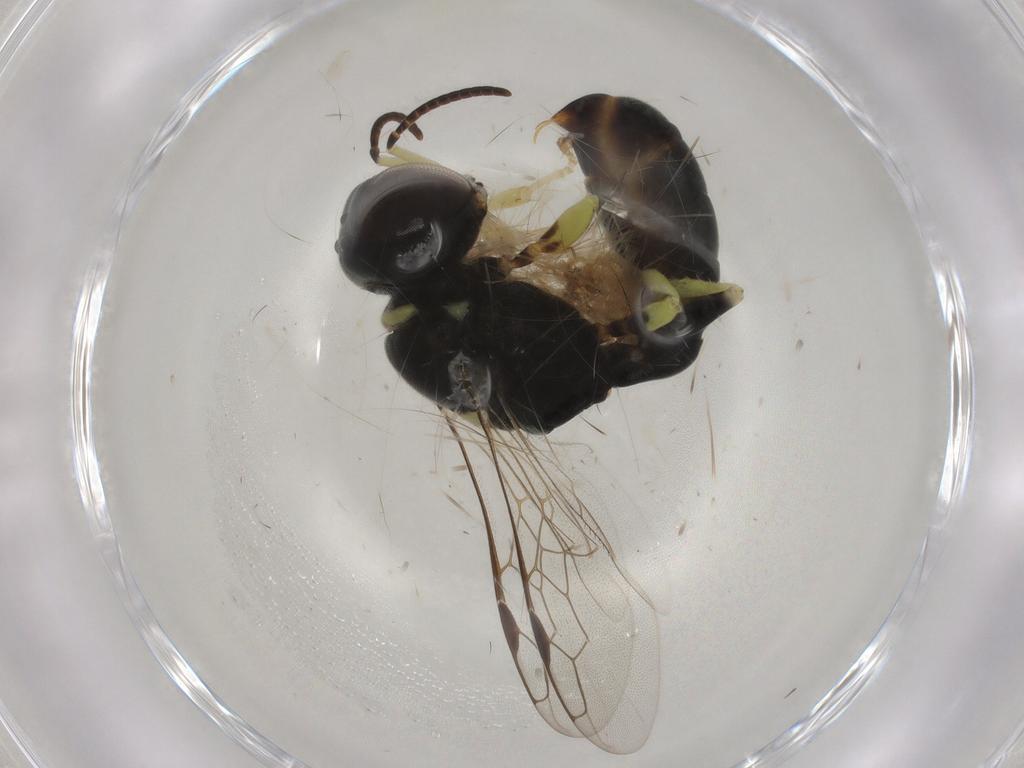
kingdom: Animalia
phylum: Arthropoda
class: Insecta
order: Hymenoptera
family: Crabronidae
